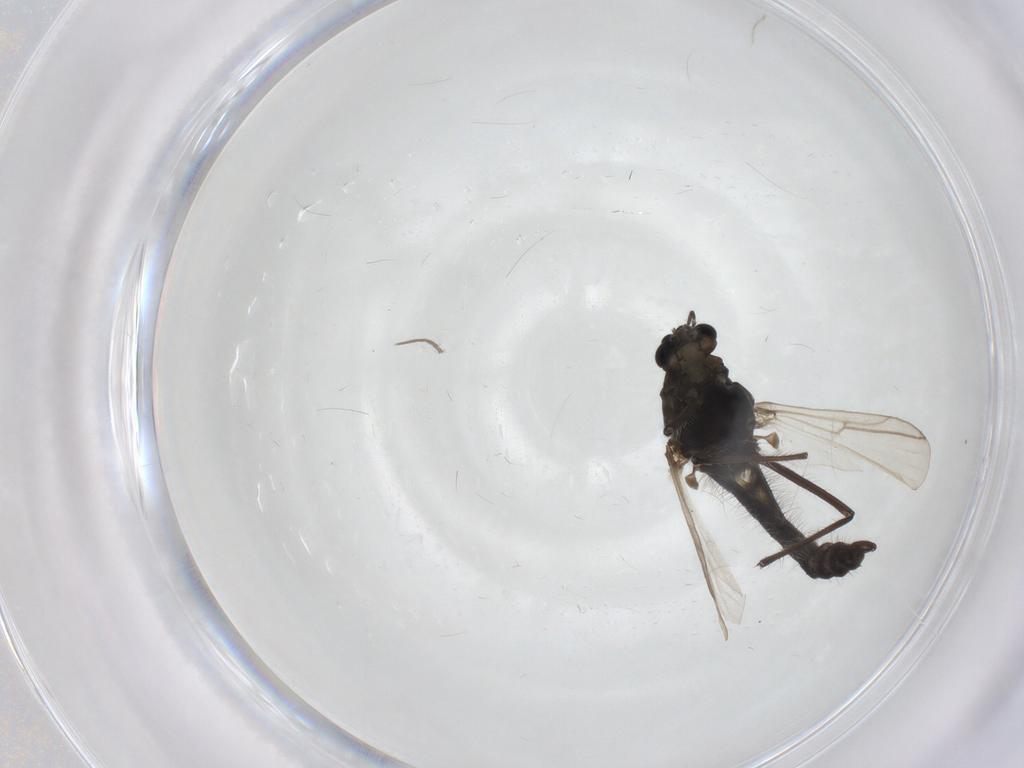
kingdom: Animalia
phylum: Arthropoda
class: Insecta
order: Diptera
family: Chironomidae
